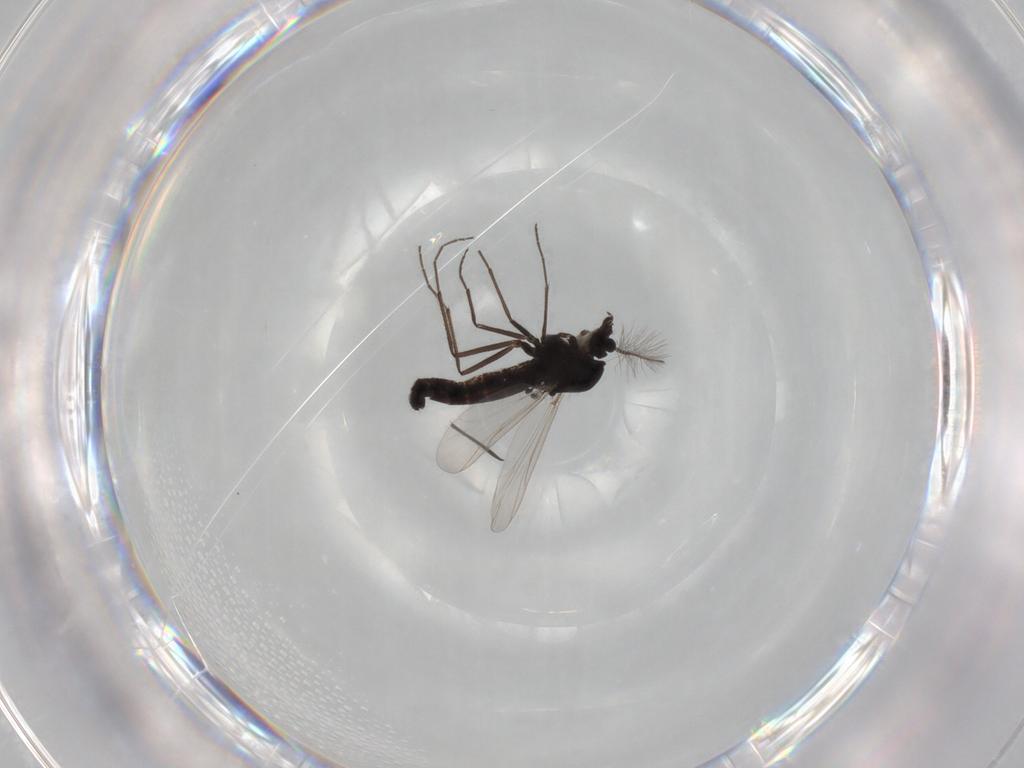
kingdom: Animalia
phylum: Arthropoda
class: Insecta
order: Diptera
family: Chironomidae
